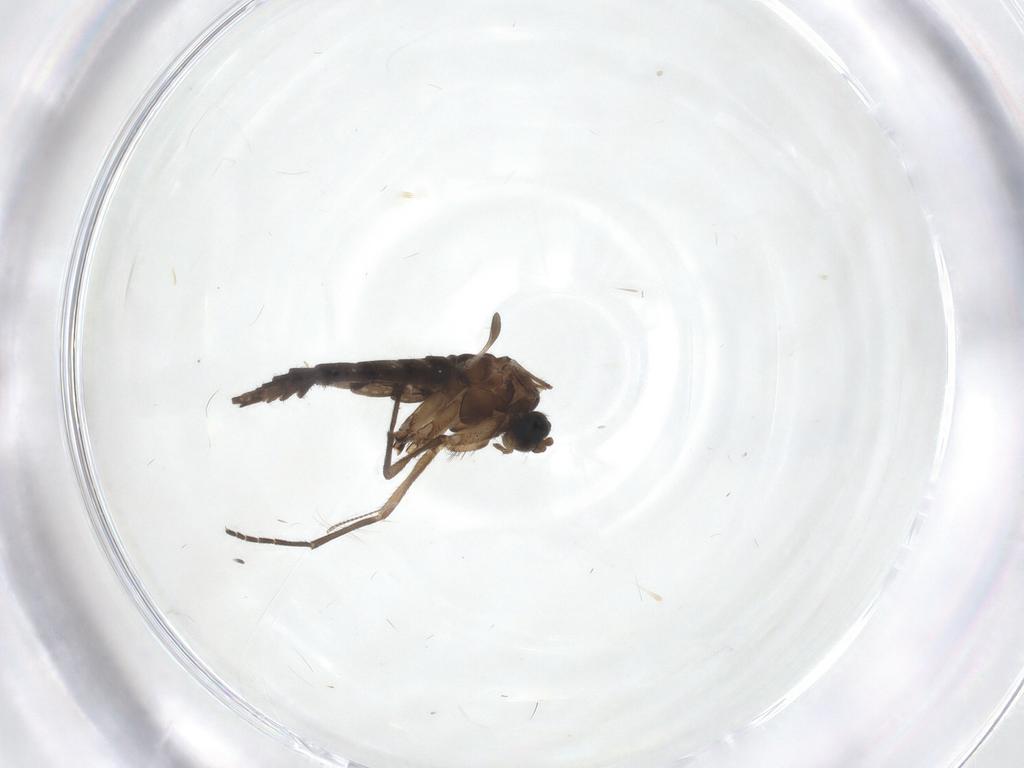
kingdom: Animalia
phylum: Arthropoda
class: Insecta
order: Diptera
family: Sciaridae
